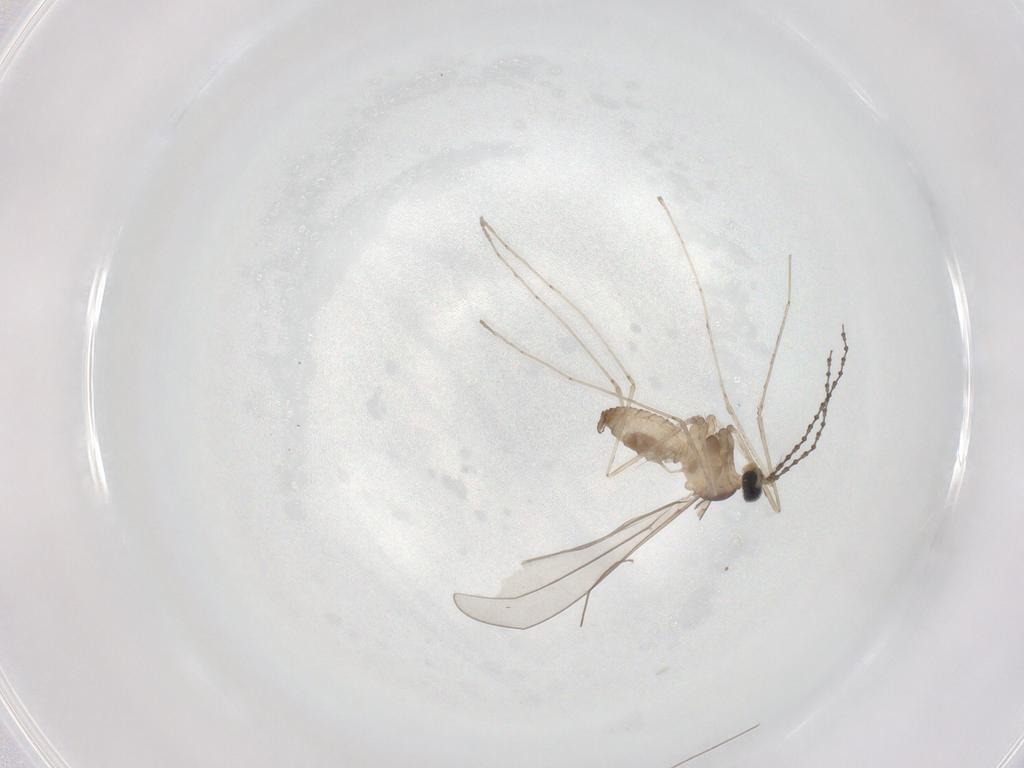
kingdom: Animalia
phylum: Arthropoda
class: Insecta
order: Diptera
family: Cecidomyiidae
